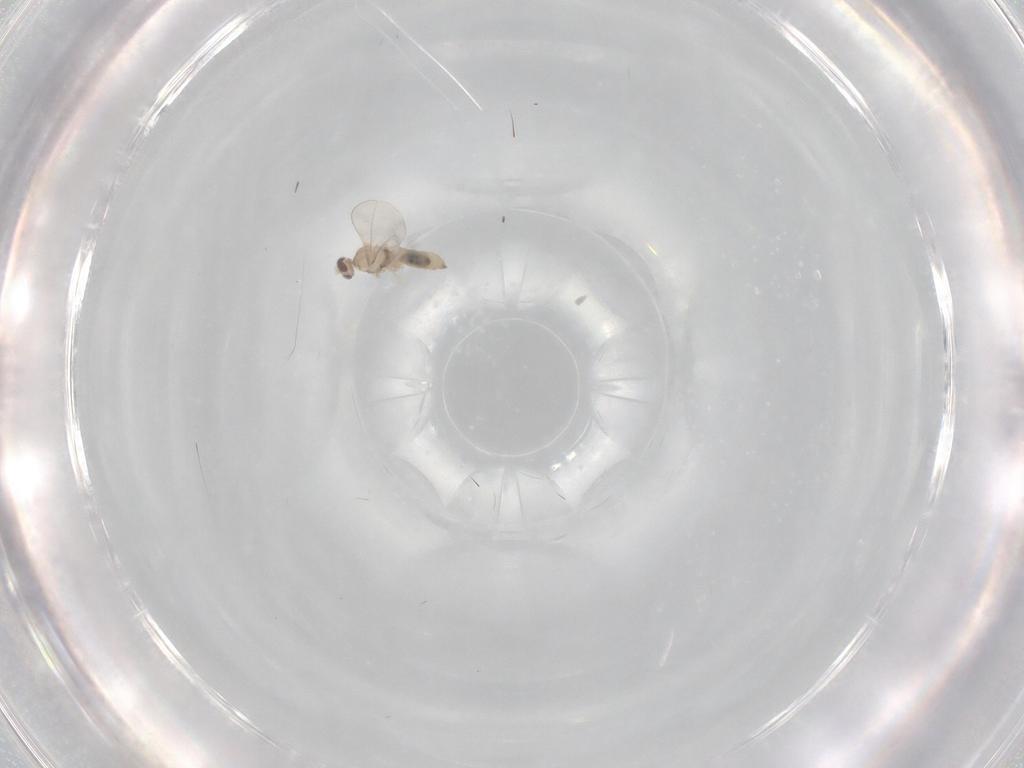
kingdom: Animalia
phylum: Arthropoda
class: Insecta
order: Diptera
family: Cecidomyiidae
